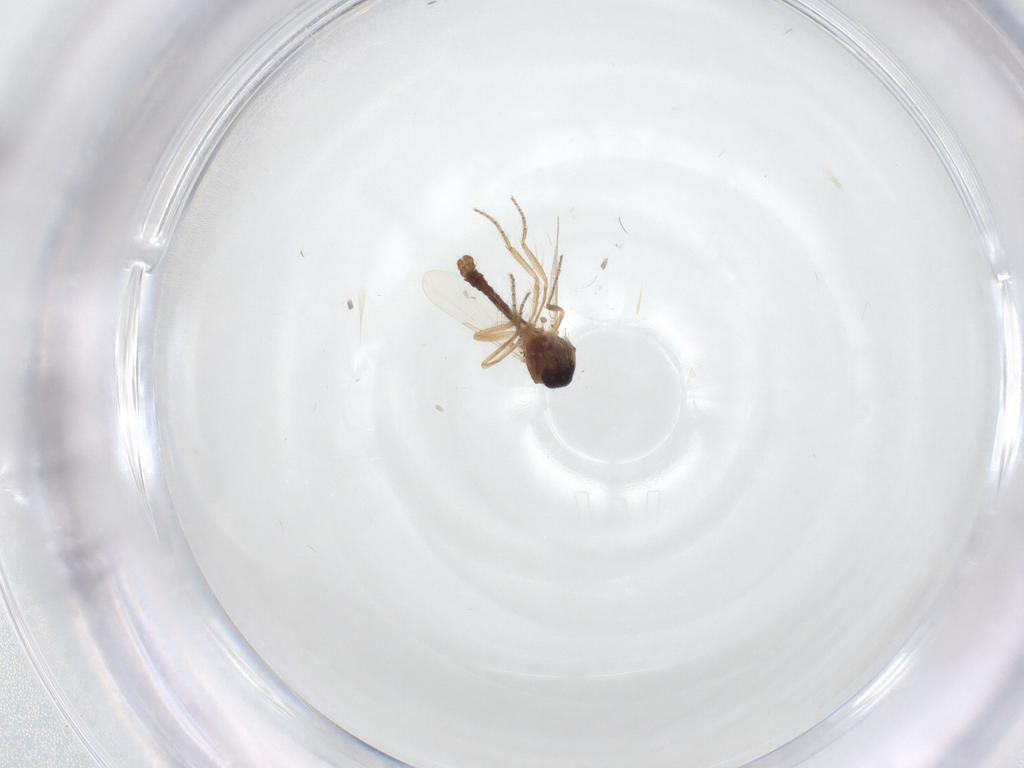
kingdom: Animalia
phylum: Arthropoda
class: Insecta
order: Diptera
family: Ceratopogonidae
